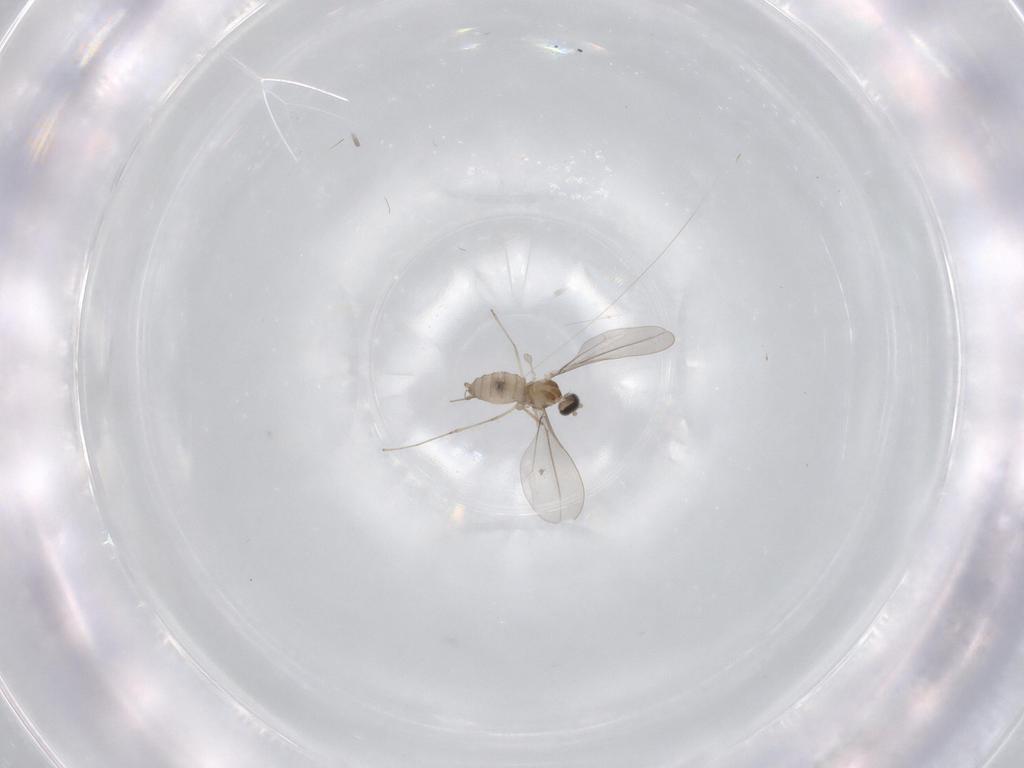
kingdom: Animalia
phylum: Arthropoda
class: Insecta
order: Diptera
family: Cecidomyiidae
